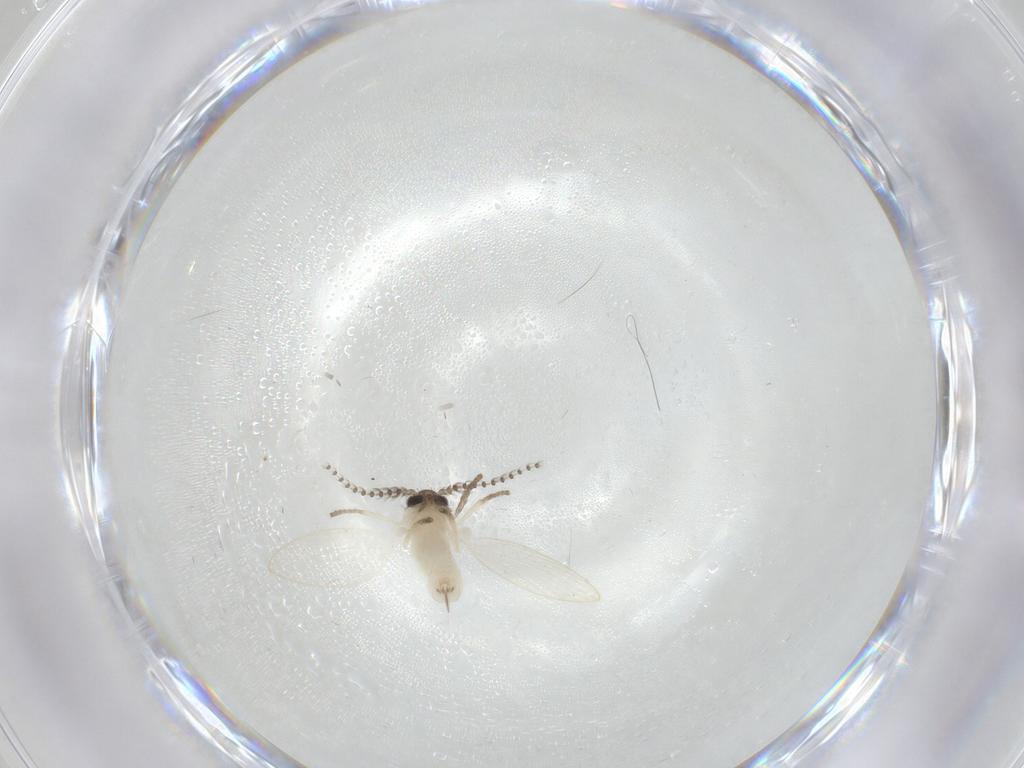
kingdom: Animalia
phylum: Arthropoda
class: Insecta
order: Diptera
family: Psychodidae
